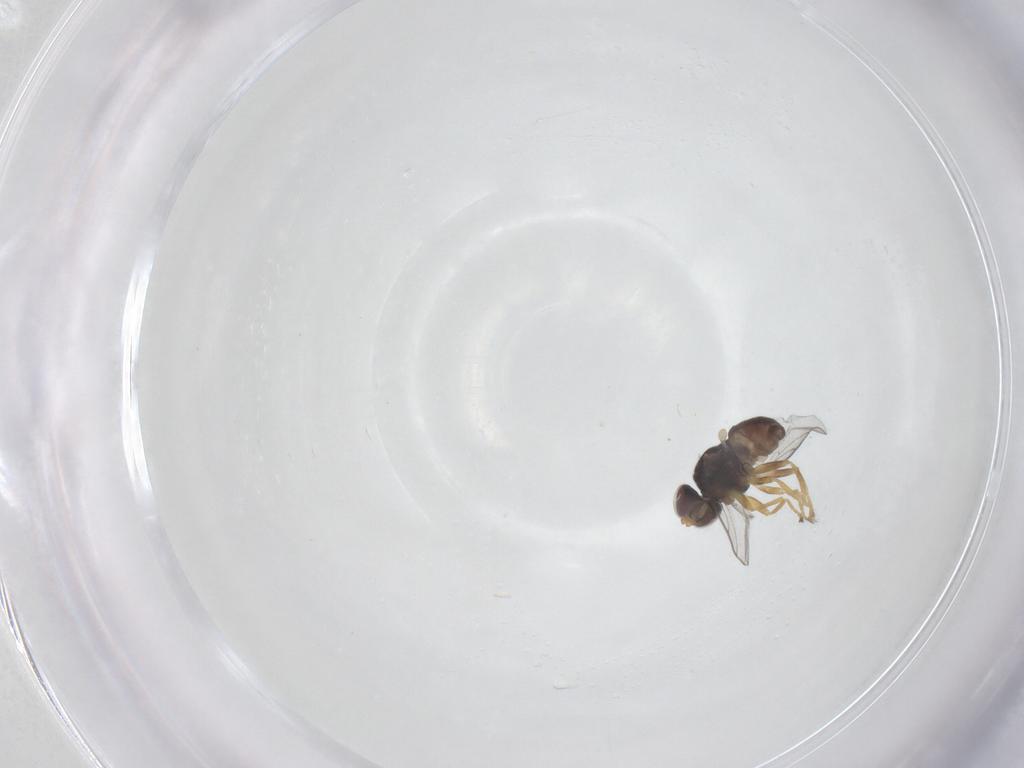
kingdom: Animalia
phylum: Arthropoda
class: Insecta
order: Diptera
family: Chloropidae
